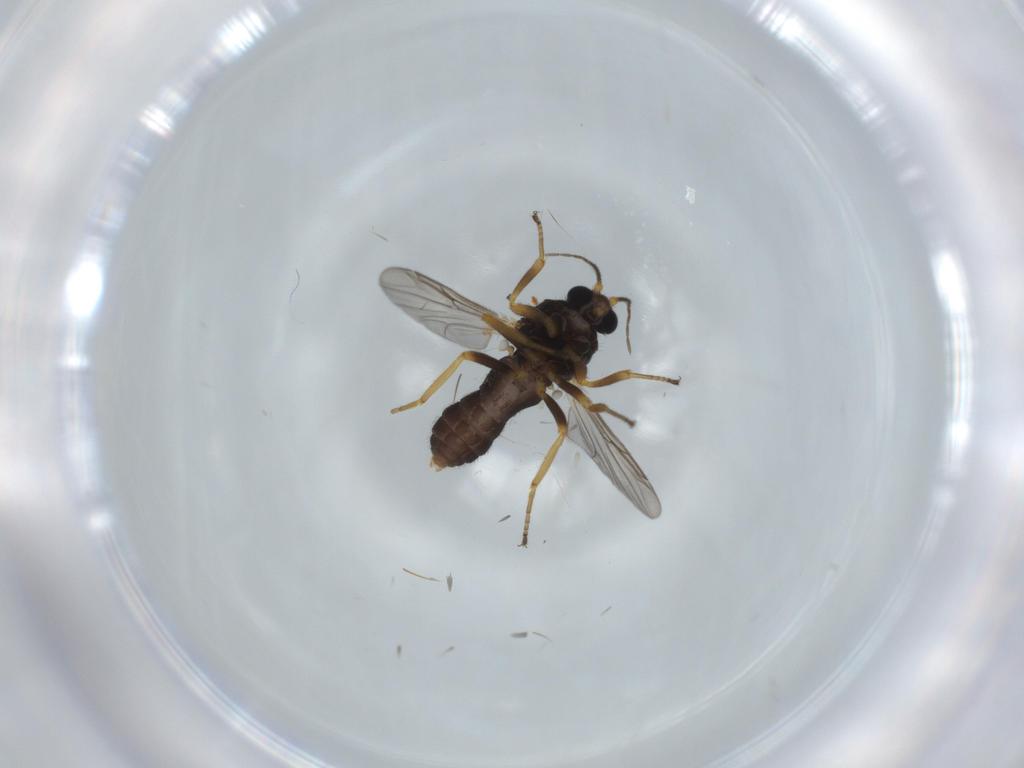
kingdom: Animalia
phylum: Arthropoda
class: Insecta
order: Diptera
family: Ceratopogonidae
